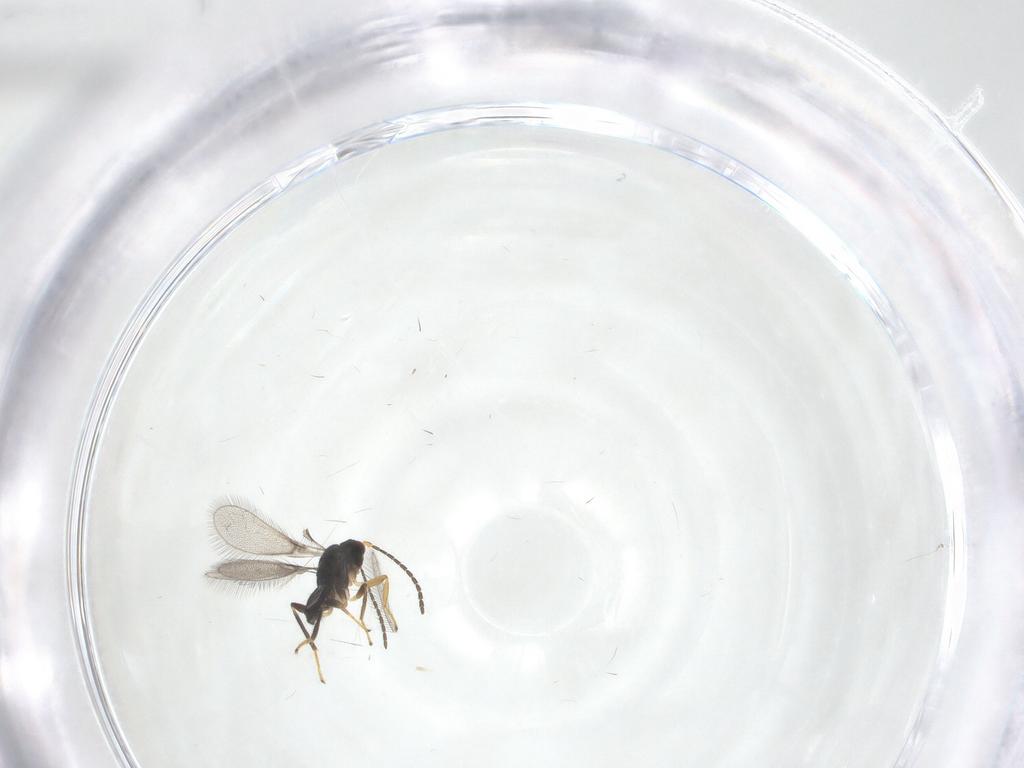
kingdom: Animalia
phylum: Arthropoda
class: Insecta
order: Hymenoptera
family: Mymaridae
